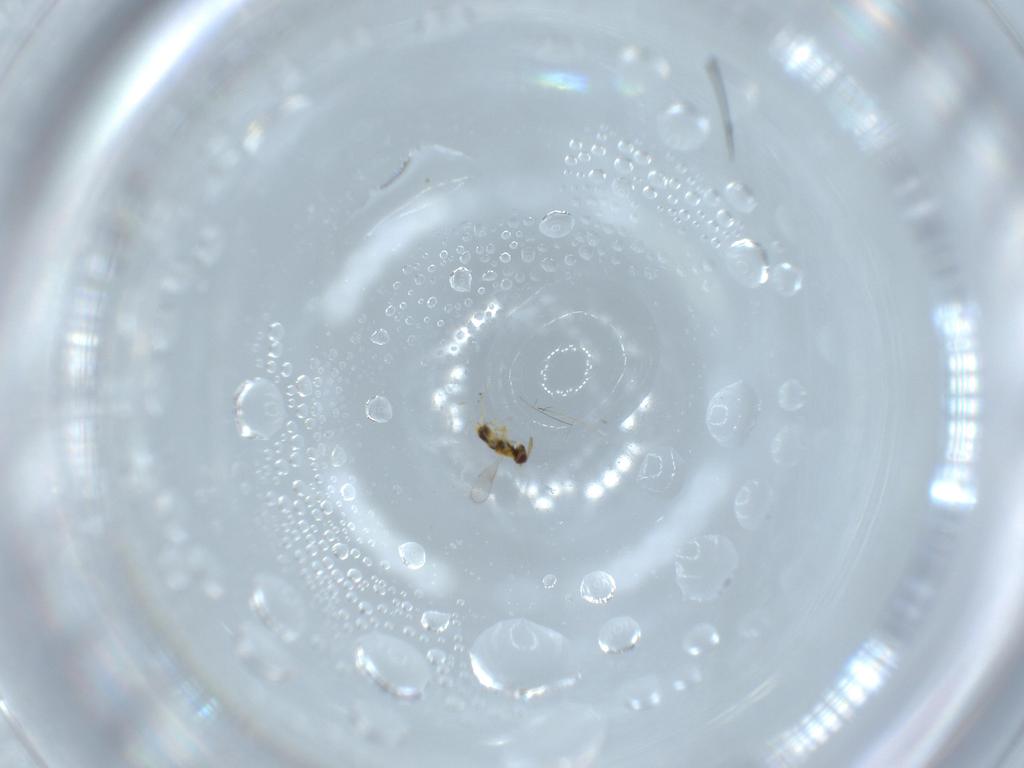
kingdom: Animalia
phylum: Arthropoda
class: Insecta
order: Hymenoptera
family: Aphelinidae
